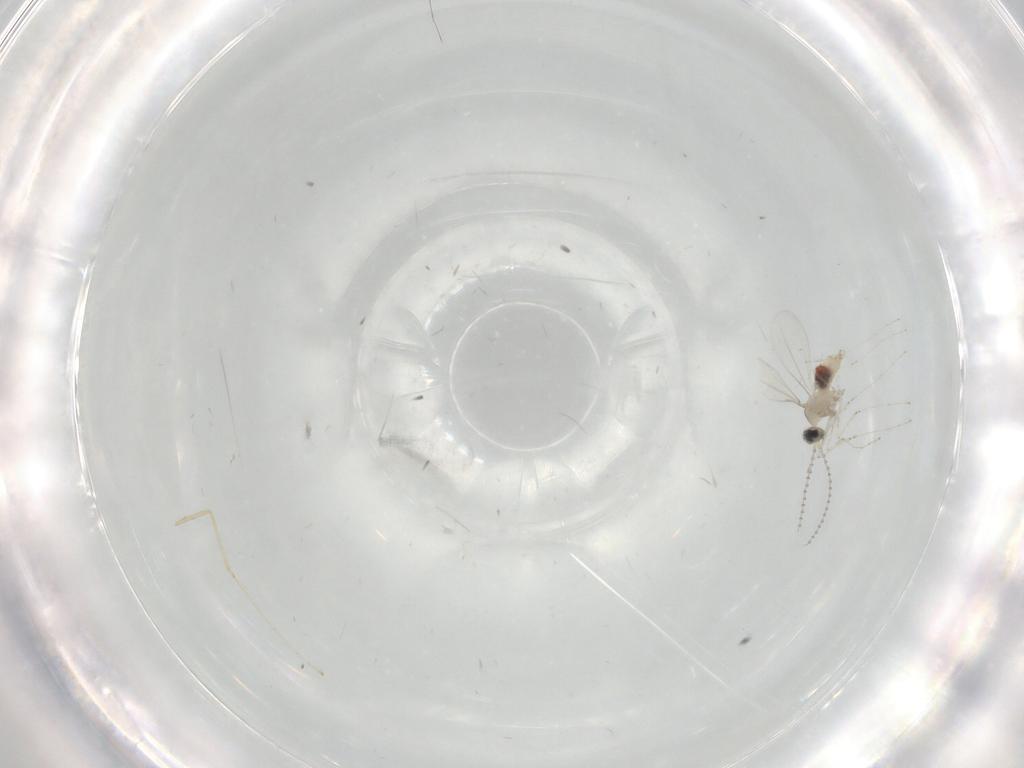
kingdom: Animalia
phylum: Arthropoda
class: Insecta
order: Diptera
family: Cecidomyiidae
